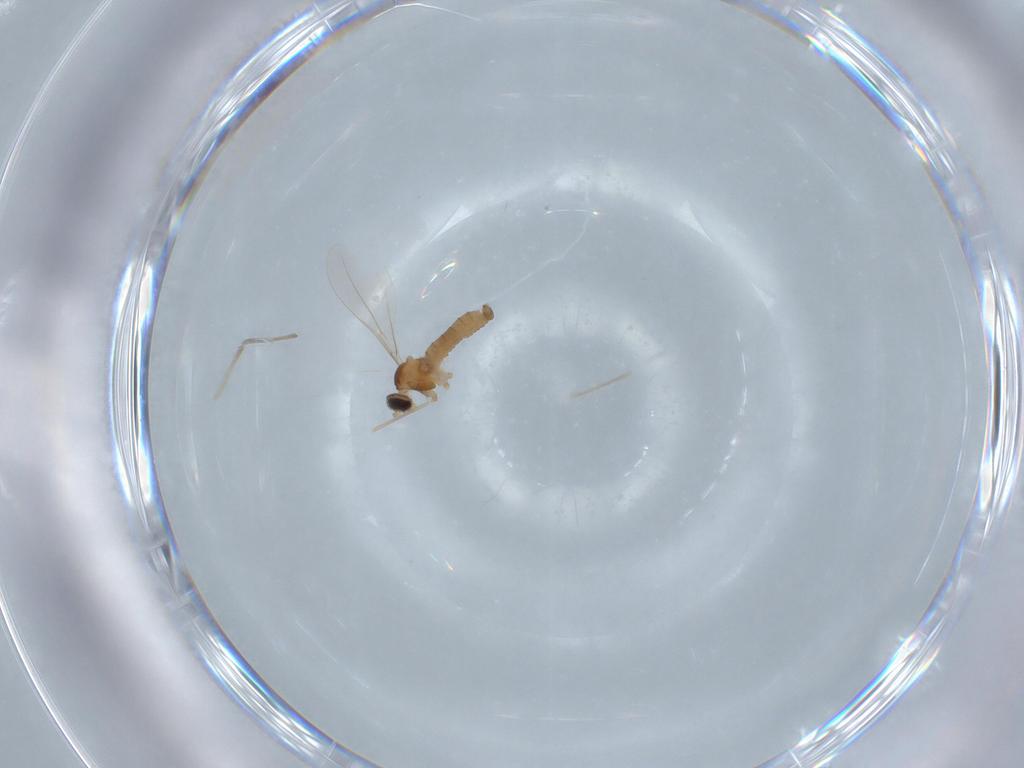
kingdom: Animalia
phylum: Arthropoda
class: Insecta
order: Diptera
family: Cecidomyiidae
